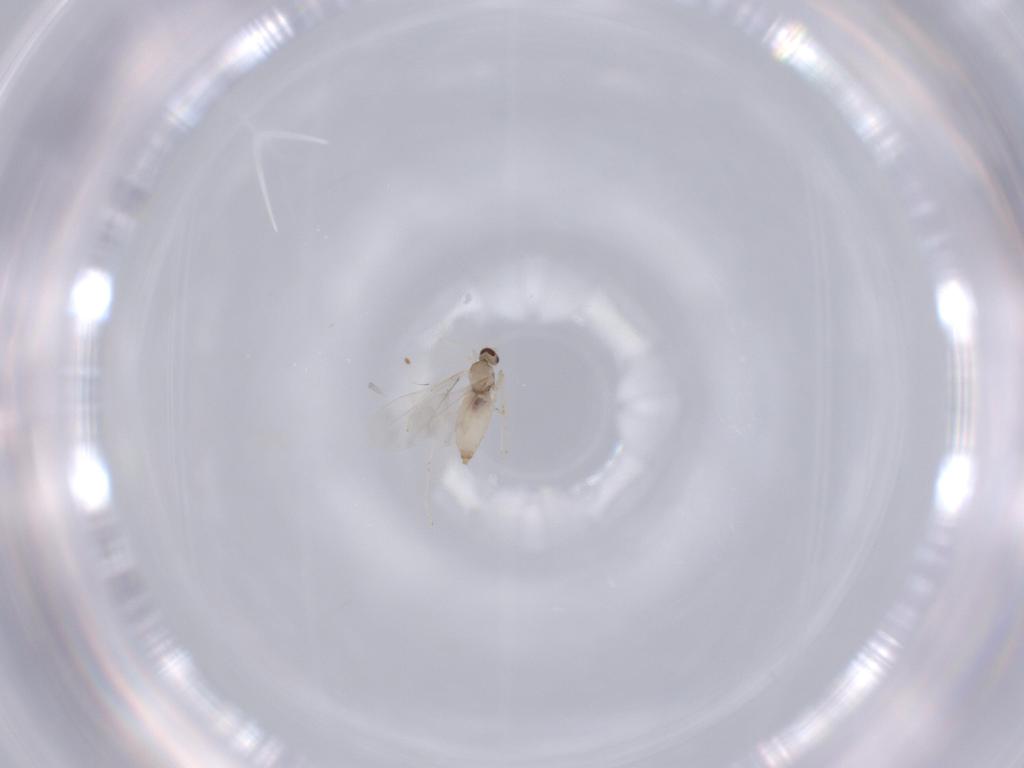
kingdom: Animalia
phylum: Arthropoda
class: Insecta
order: Diptera
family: Cecidomyiidae
